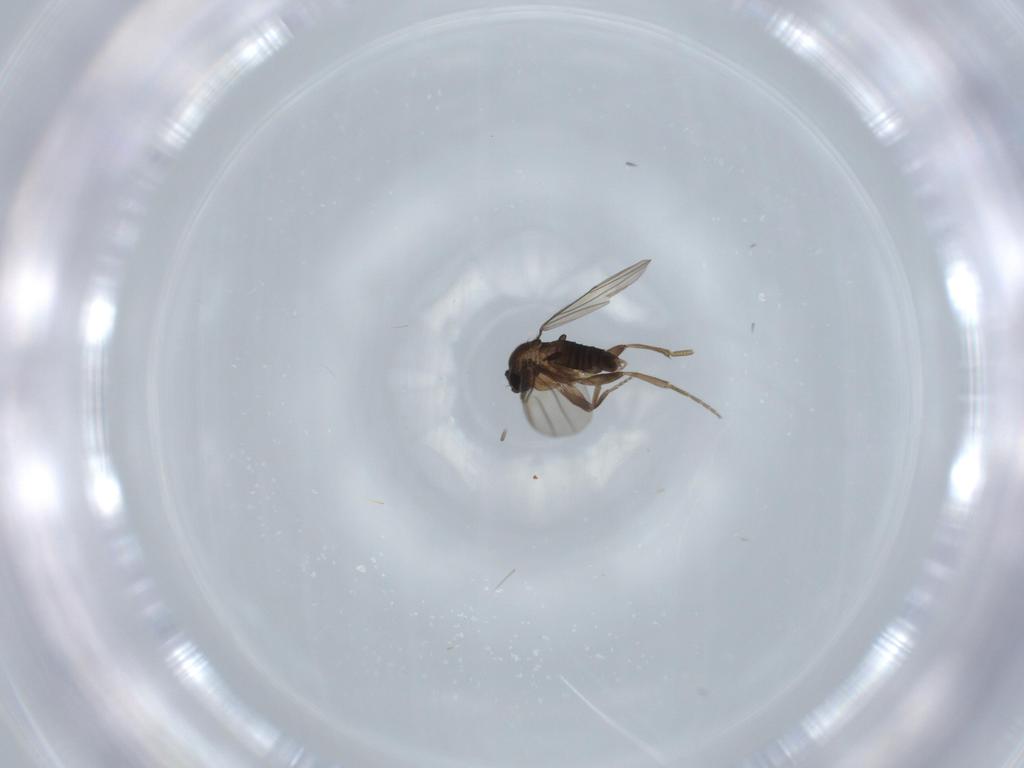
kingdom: Animalia
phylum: Arthropoda
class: Insecta
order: Diptera
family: Phoridae
